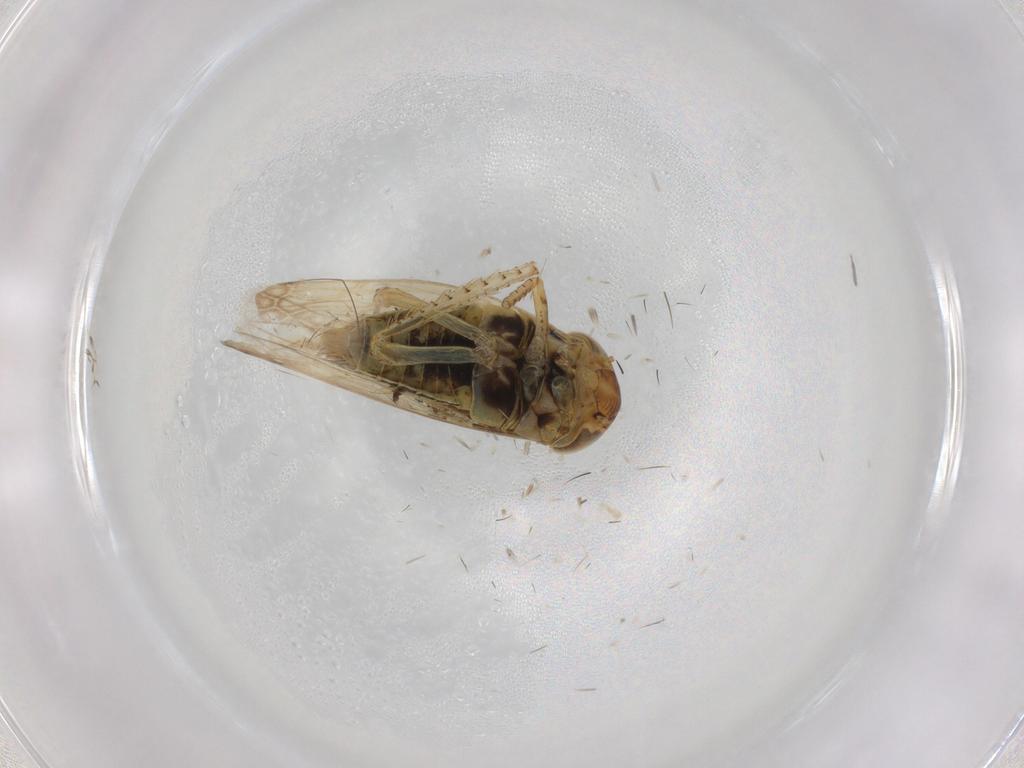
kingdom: Animalia
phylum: Arthropoda
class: Insecta
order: Hemiptera
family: Cicadellidae
